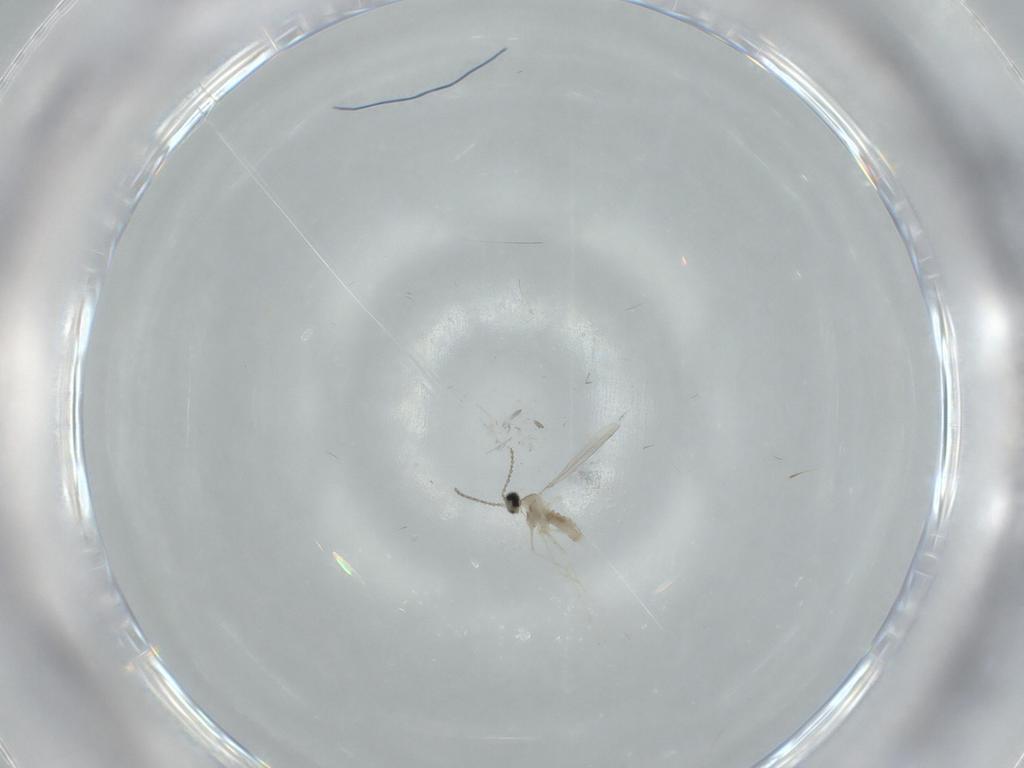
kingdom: Animalia
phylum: Arthropoda
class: Insecta
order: Diptera
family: Cecidomyiidae
